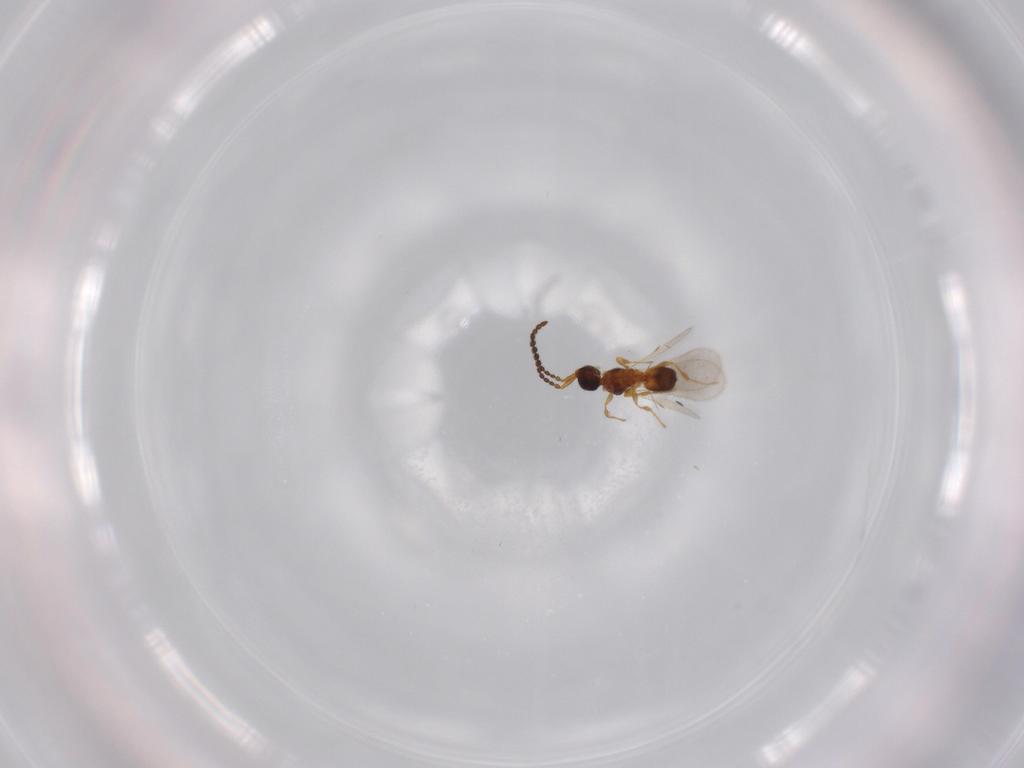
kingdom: Animalia
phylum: Arthropoda
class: Insecta
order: Hymenoptera
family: Diapriidae
